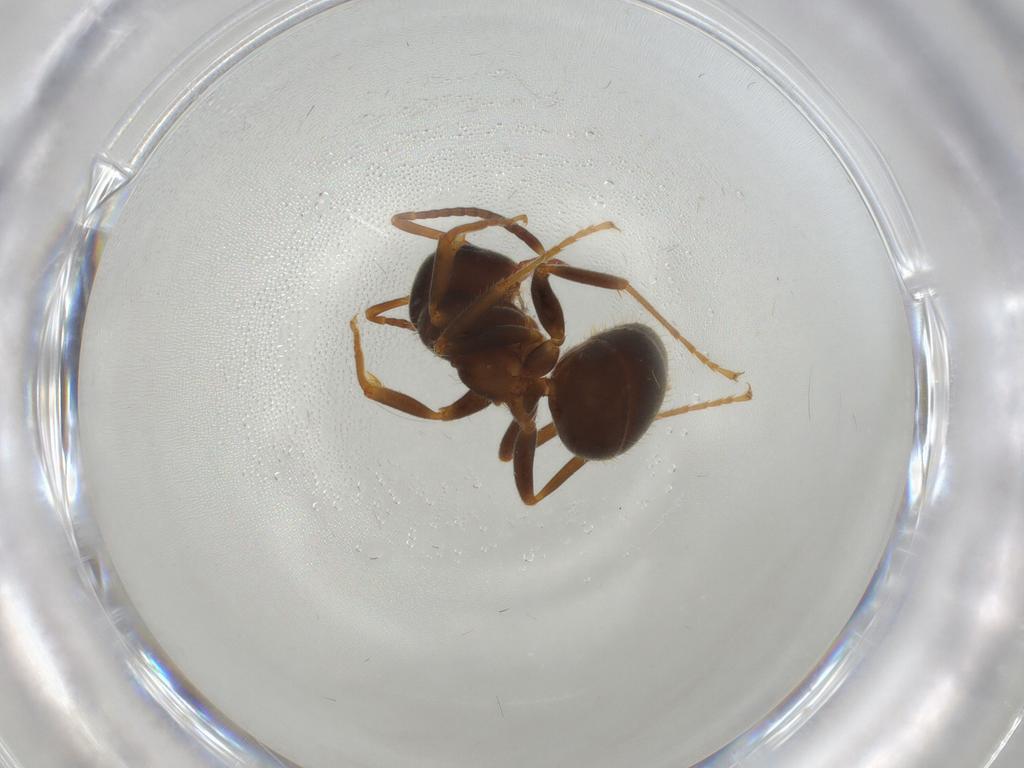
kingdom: Animalia
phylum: Arthropoda
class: Insecta
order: Hymenoptera
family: Formicidae
